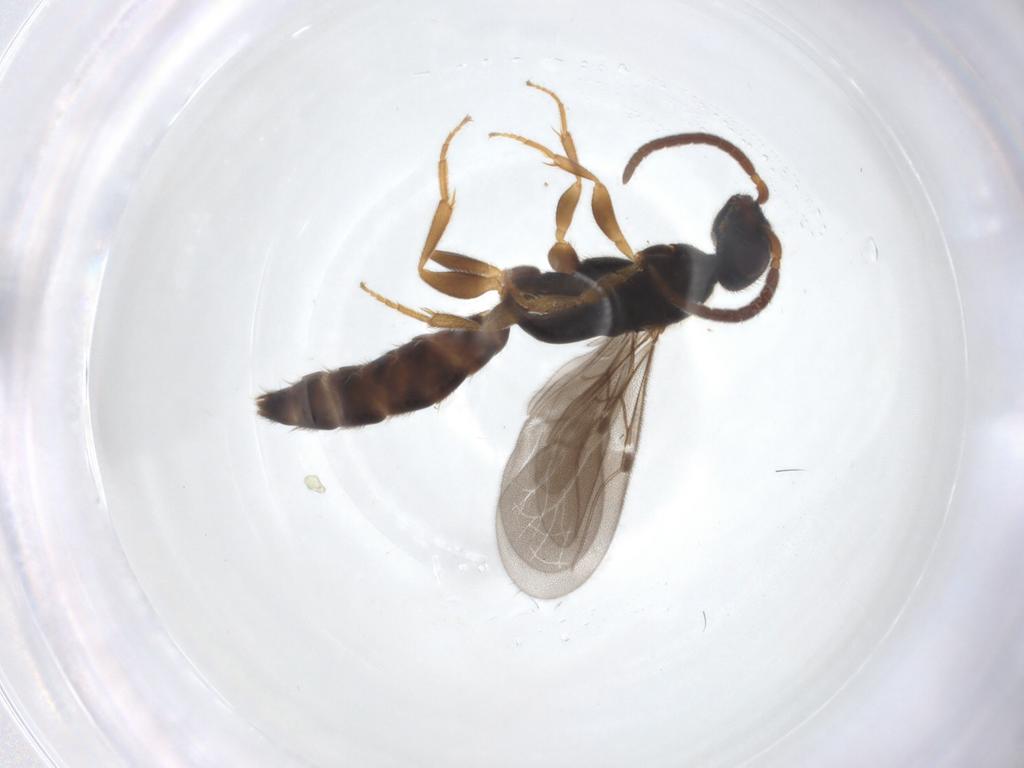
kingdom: Animalia
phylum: Arthropoda
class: Insecta
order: Hymenoptera
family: Bethylidae
